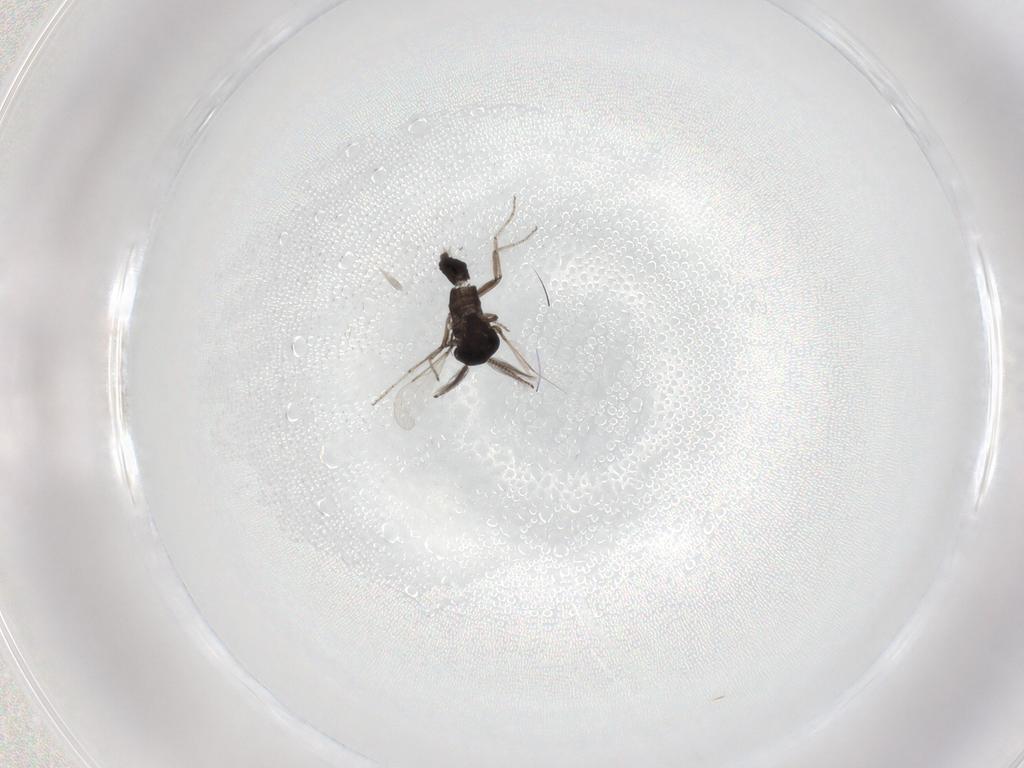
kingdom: Animalia
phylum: Arthropoda
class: Insecta
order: Diptera
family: Ceratopogonidae
